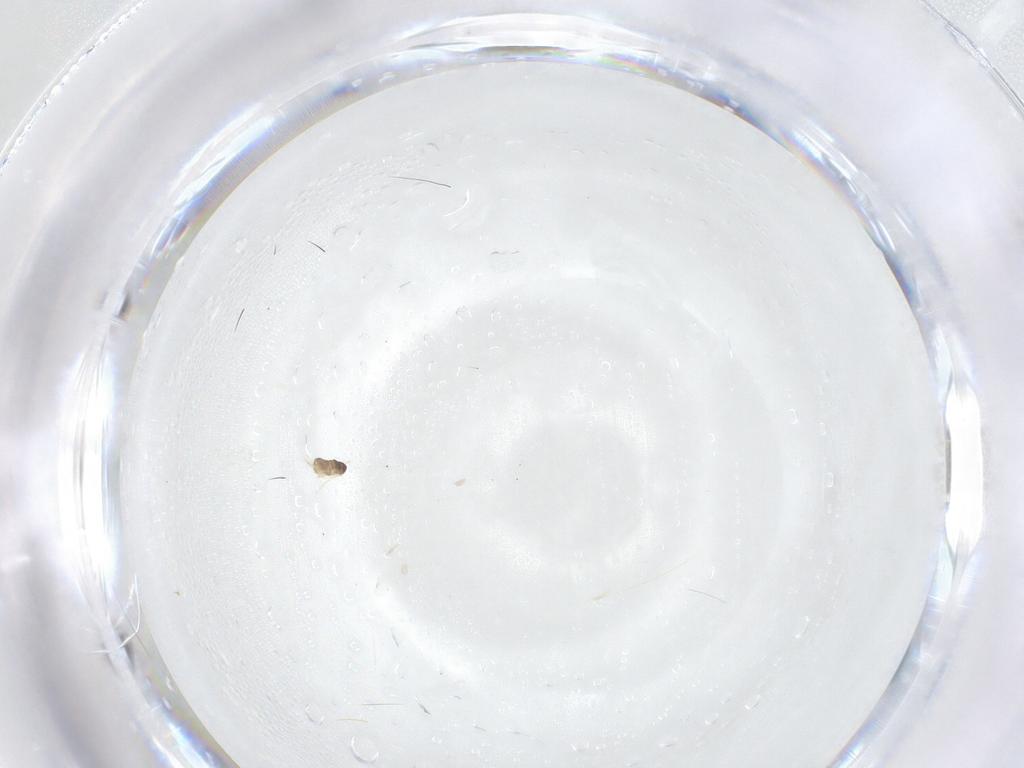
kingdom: Animalia
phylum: Arthropoda
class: Insecta
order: Hymenoptera
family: Mymaridae
